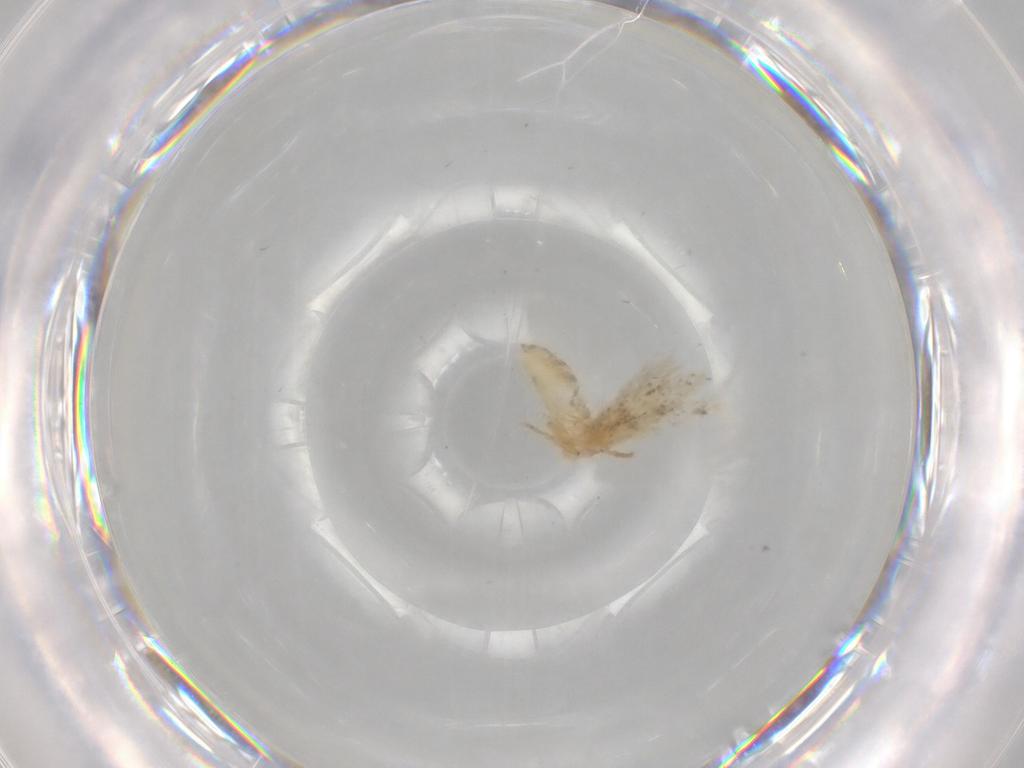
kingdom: Animalia
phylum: Arthropoda
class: Insecta
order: Lepidoptera
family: Nepticulidae
